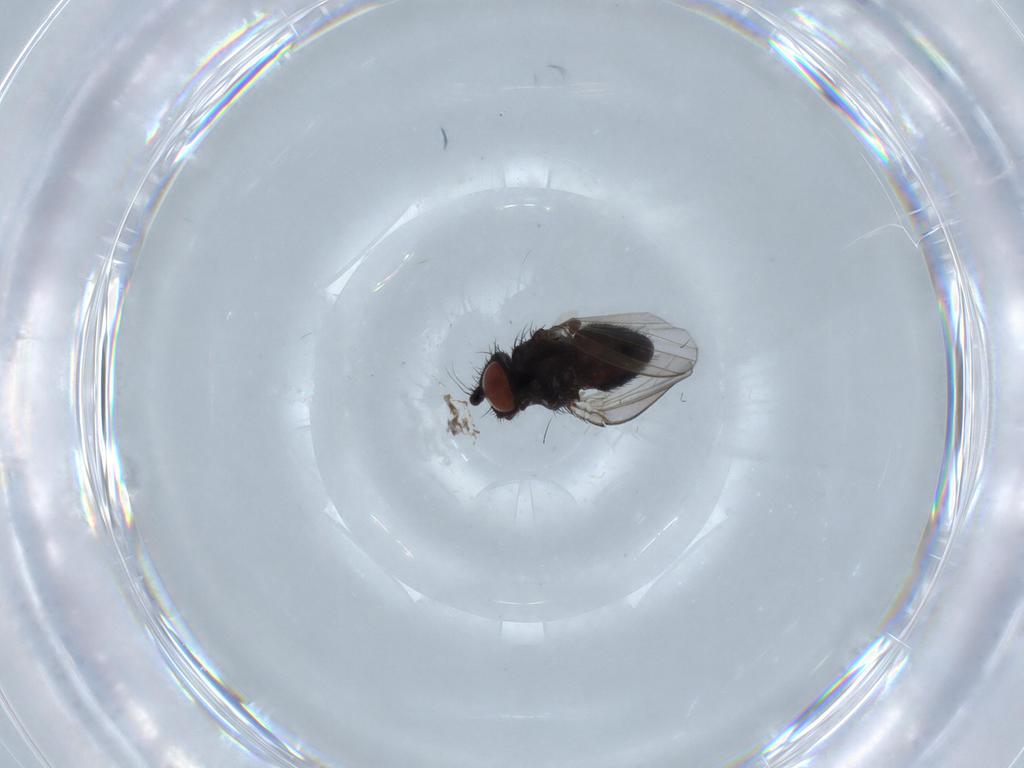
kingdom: Animalia
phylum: Arthropoda
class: Insecta
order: Diptera
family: Milichiidae
